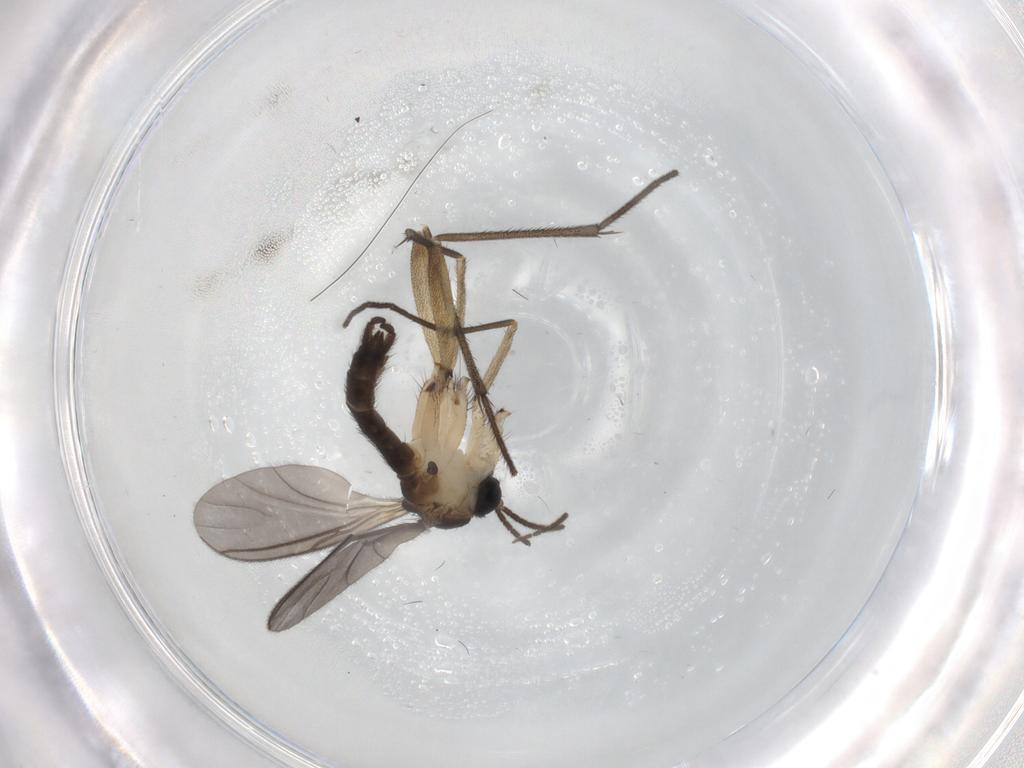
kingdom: Animalia
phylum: Arthropoda
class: Insecta
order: Diptera
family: Sciaridae
